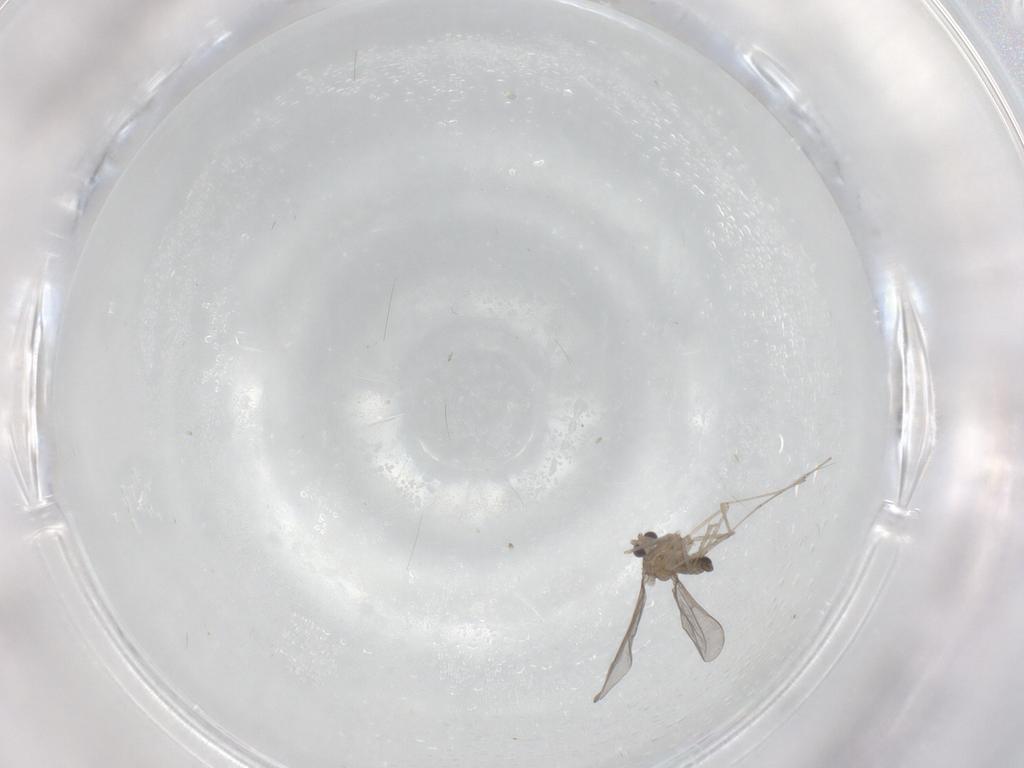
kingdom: Animalia
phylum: Arthropoda
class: Insecta
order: Diptera
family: Cecidomyiidae
